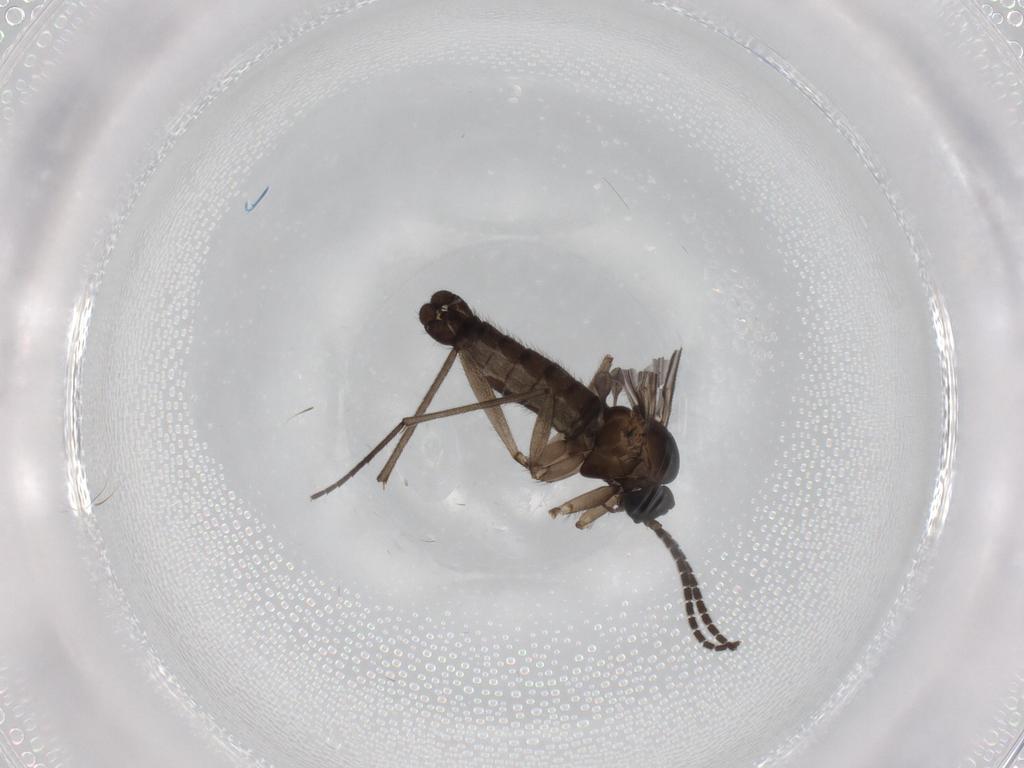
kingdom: Animalia
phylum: Arthropoda
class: Insecta
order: Diptera
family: Sciaridae
